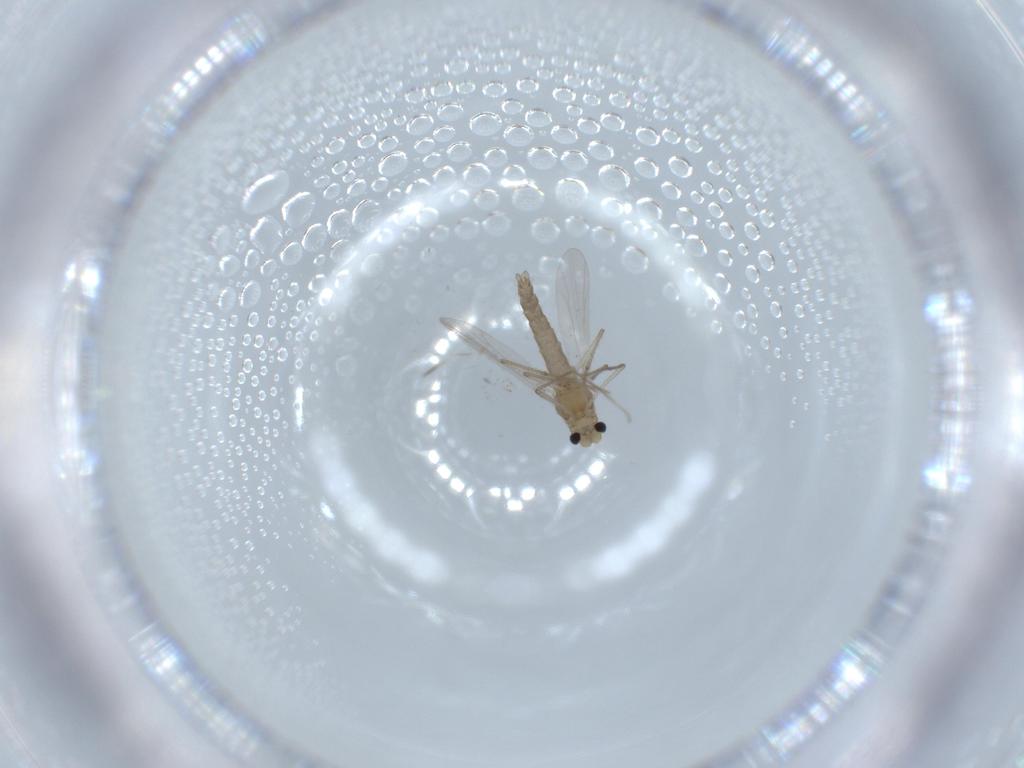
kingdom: Animalia
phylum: Arthropoda
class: Insecta
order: Diptera
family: Chironomidae
